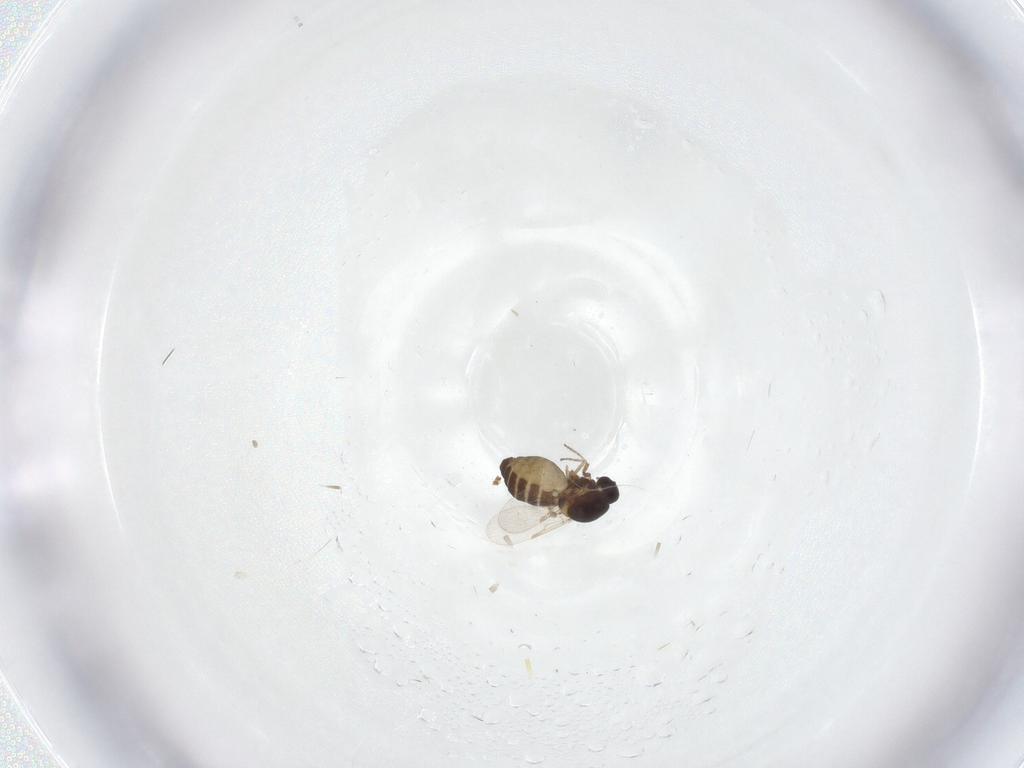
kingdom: Animalia
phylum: Arthropoda
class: Insecta
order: Diptera
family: Ceratopogonidae
